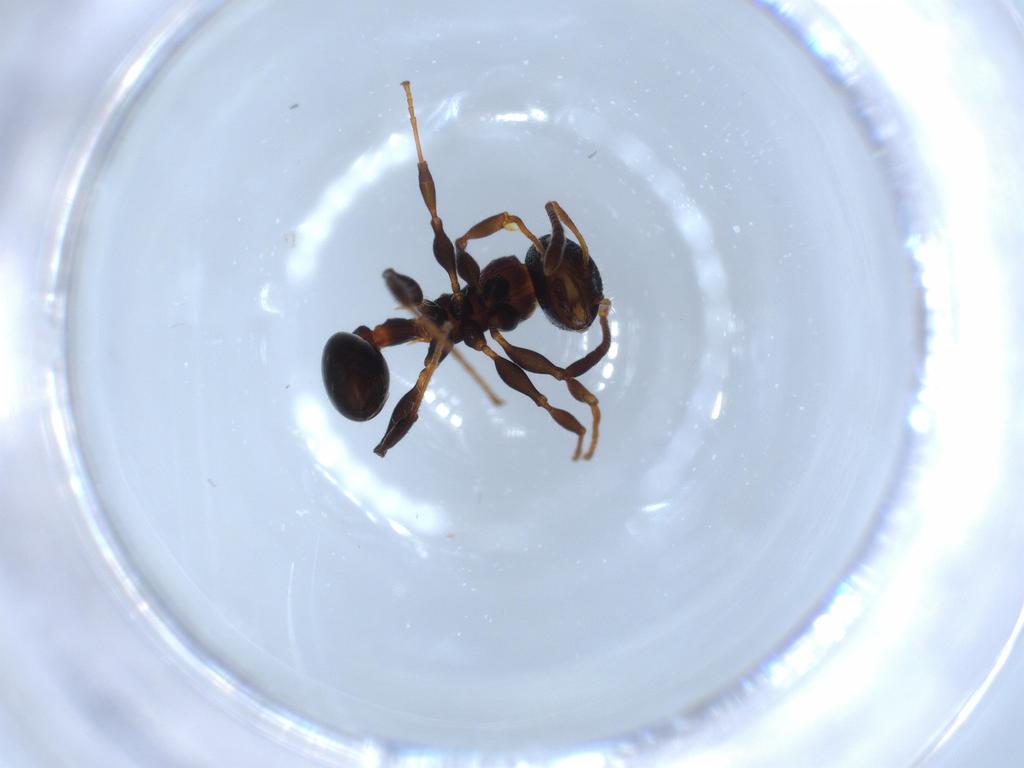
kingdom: Animalia
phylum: Arthropoda
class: Insecta
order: Hymenoptera
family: Formicidae
